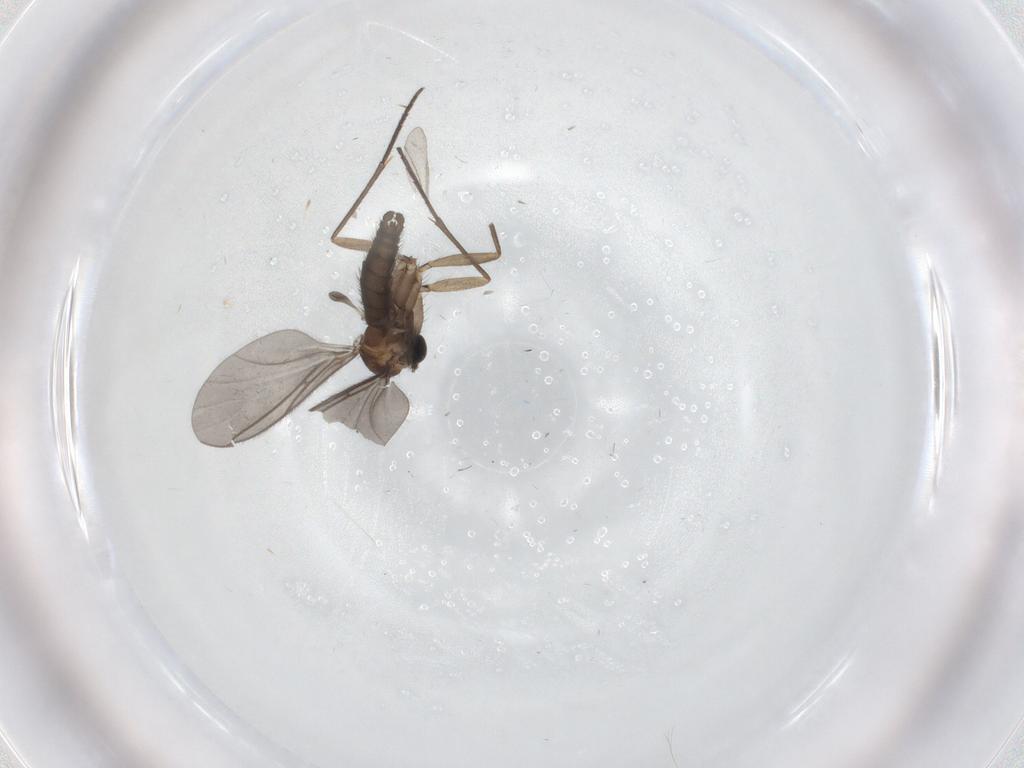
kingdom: Animalia
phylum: Arthropoda
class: Insecta
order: Diptera
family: Sciaridae
